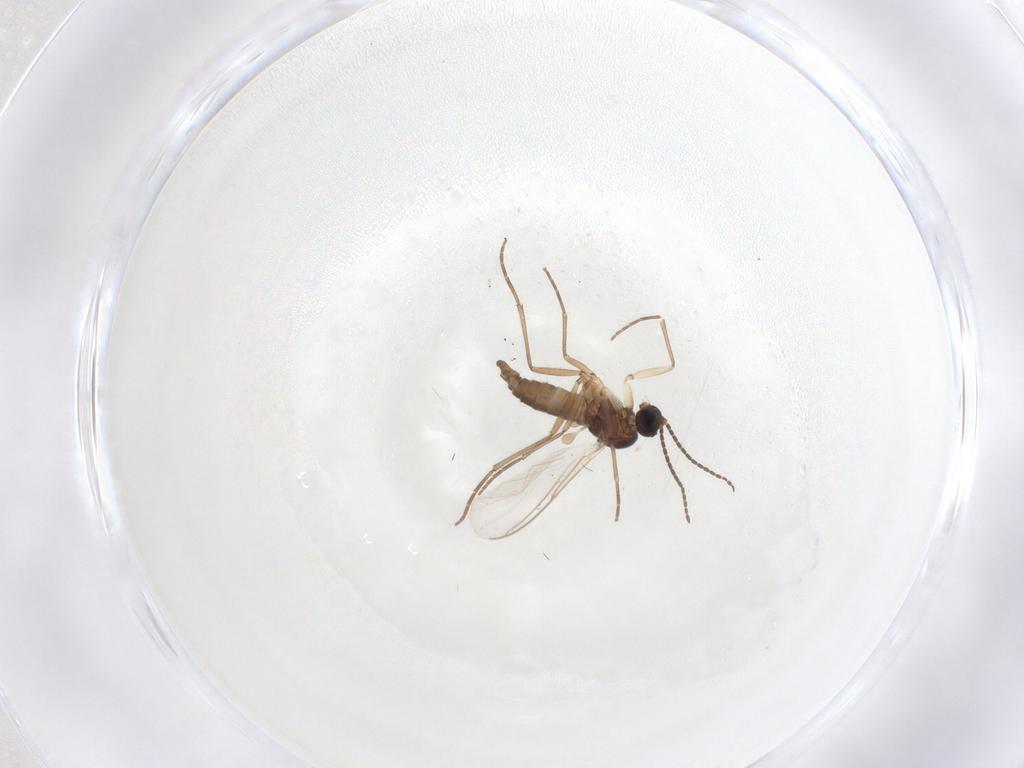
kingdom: Animalia
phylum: Arthropoda
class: Insecta
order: Diptera
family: Sciaridae
